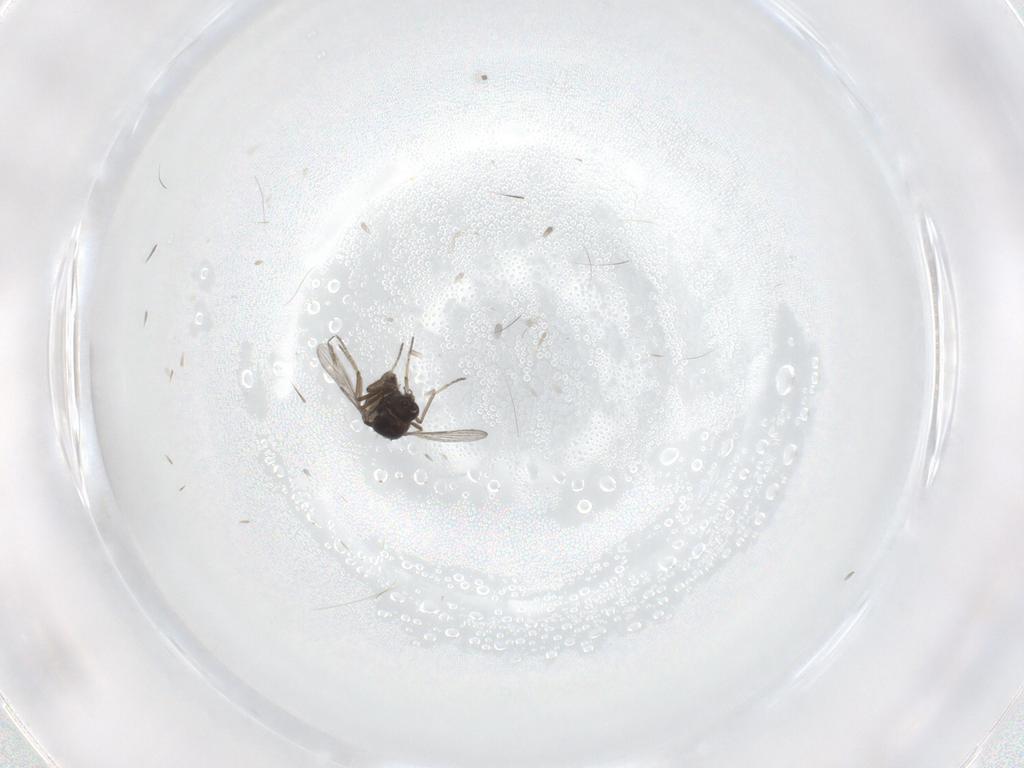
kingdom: Animalia
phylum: Arthropoda
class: Insecta
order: Diptera
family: Ceratopogonidae
